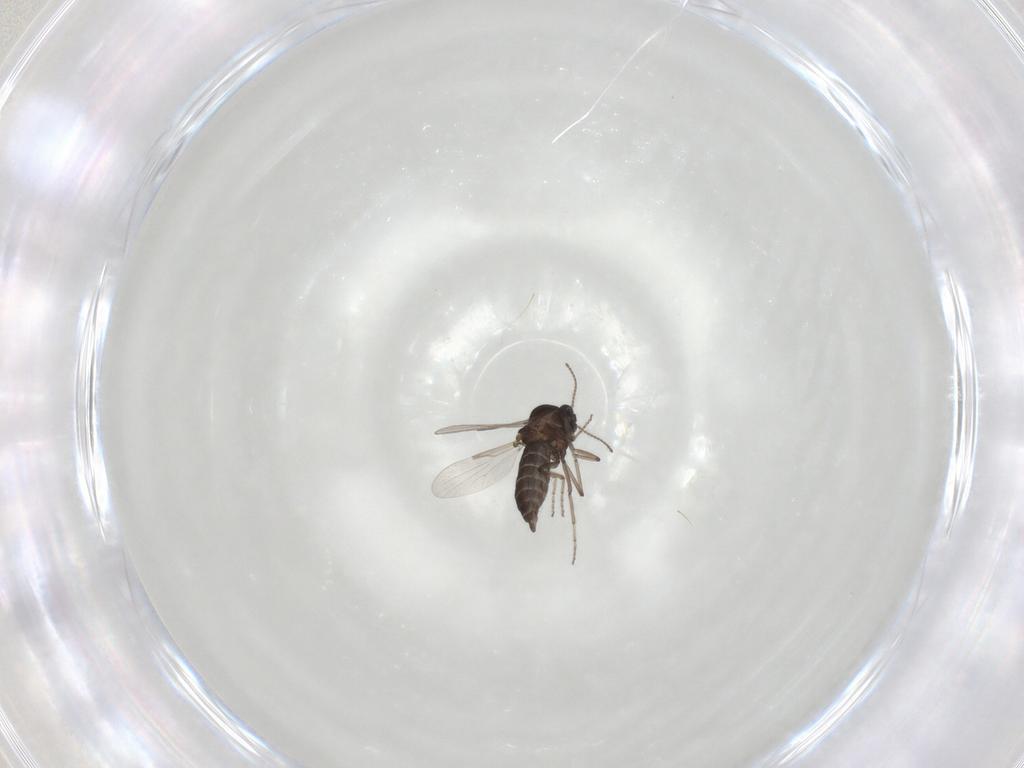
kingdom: Animalia
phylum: Arthropoda
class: Insecta
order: Diptera
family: Ceratopogonidae
